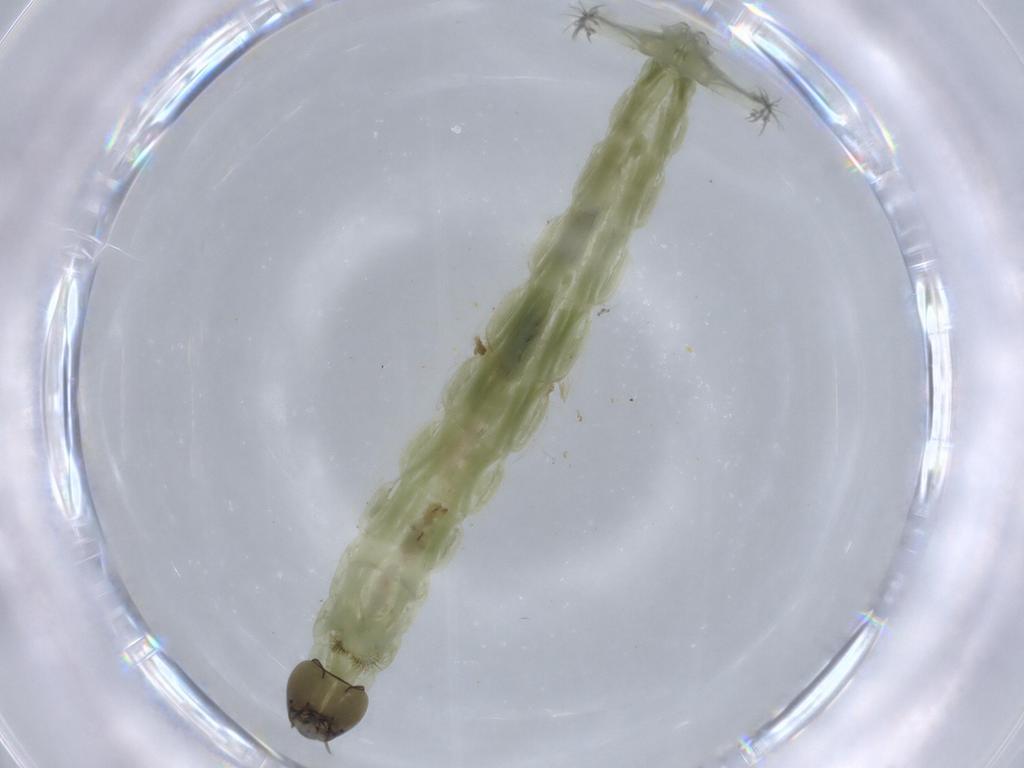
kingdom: Animalia
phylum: Arthropoda
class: Insecta
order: Diptera
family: Chironomidae
